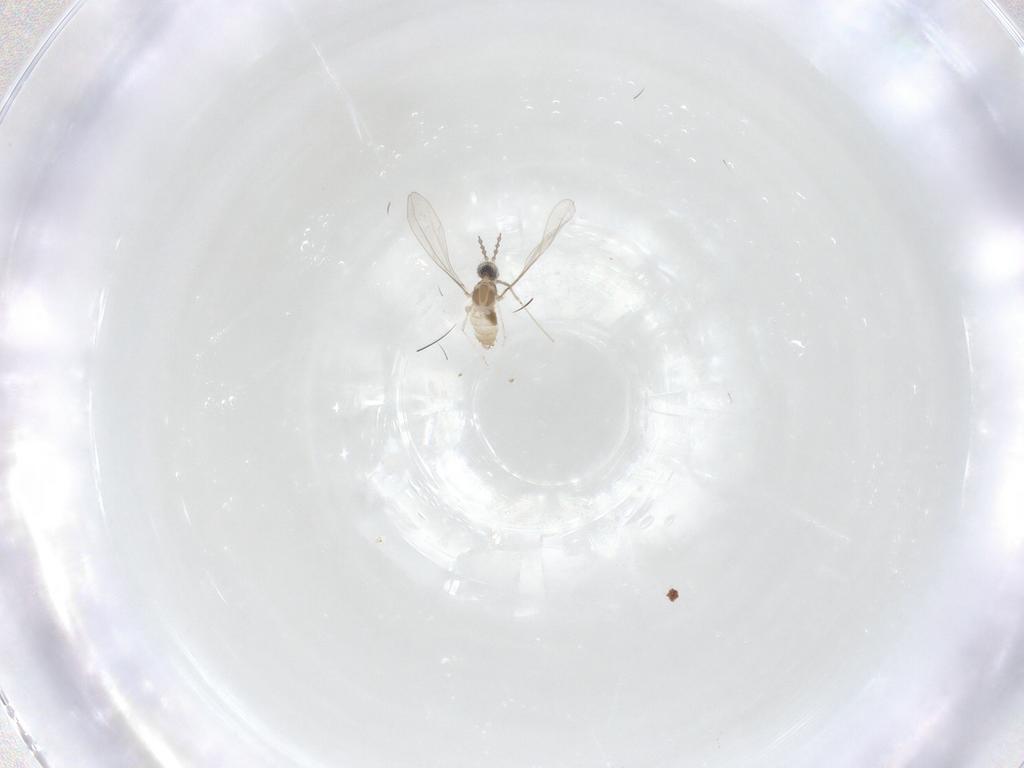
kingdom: Animalia
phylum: Arthropoda
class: Insecta
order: Diptera
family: Cecidomyiidae
